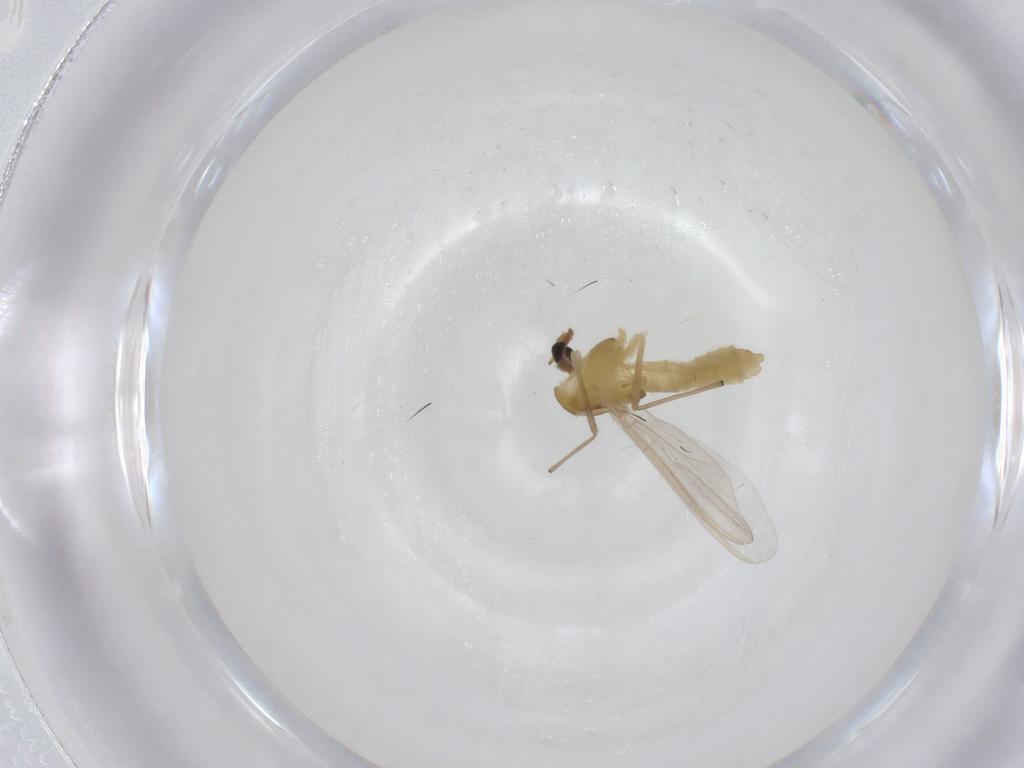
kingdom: Animalia
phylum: Arthropoda
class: Insecta
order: Diptera
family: Chironomidae
